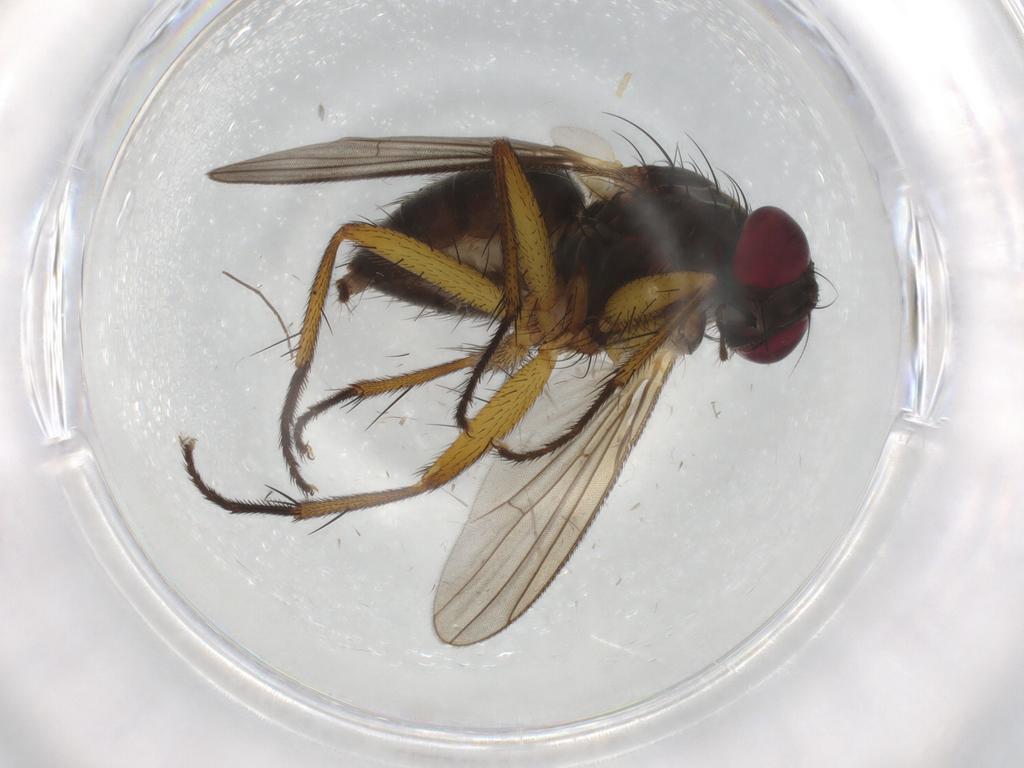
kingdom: Animalia
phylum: Arthropoda
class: Insecta
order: Diptera
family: Muscidae
